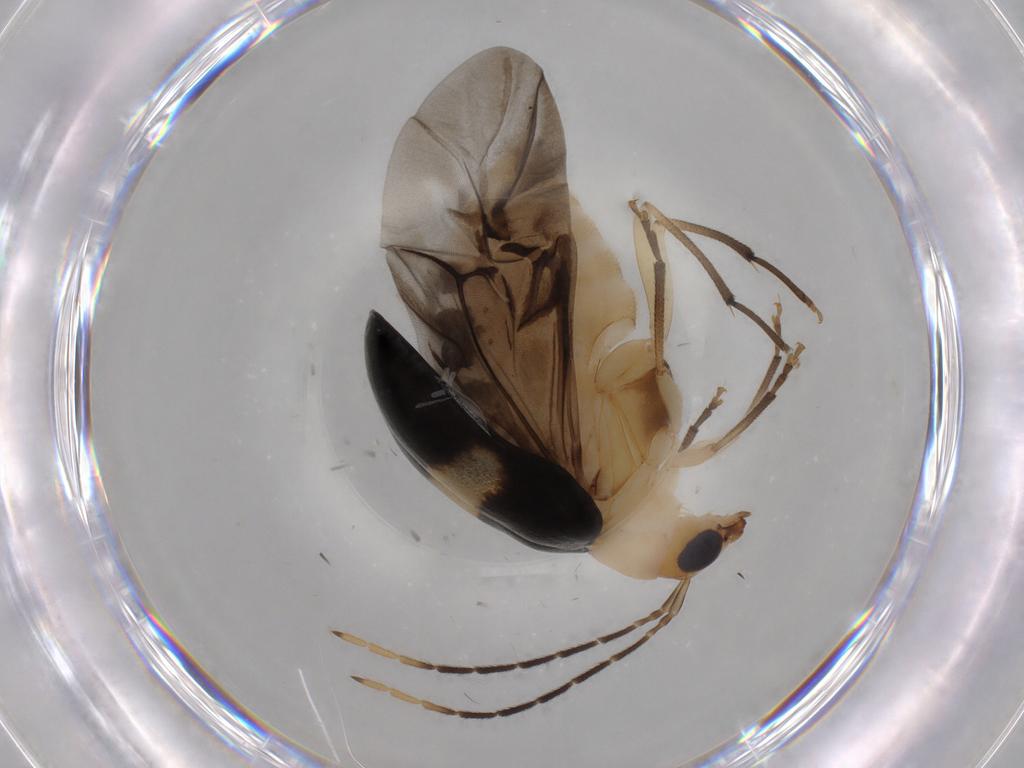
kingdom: Animalia
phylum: Arthropoda
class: Insecta
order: Coleoptera
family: Chrysomelidae
